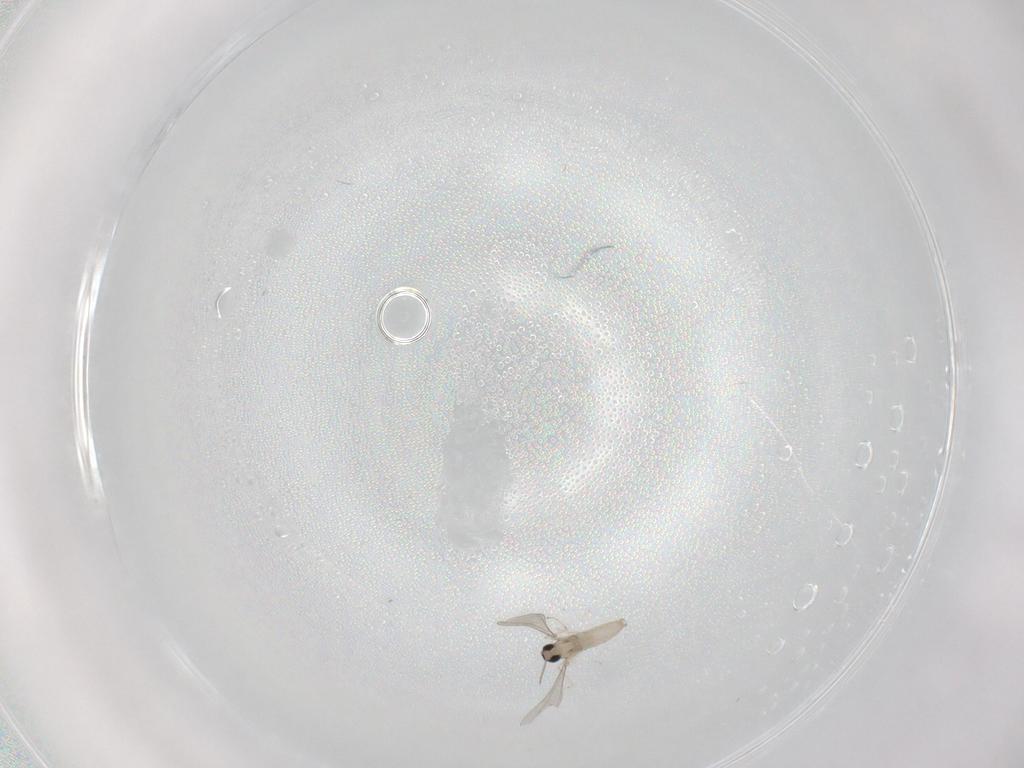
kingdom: Animalia
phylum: Arthropoda
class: Insecta
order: Diptera
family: Cecidomyiidae
